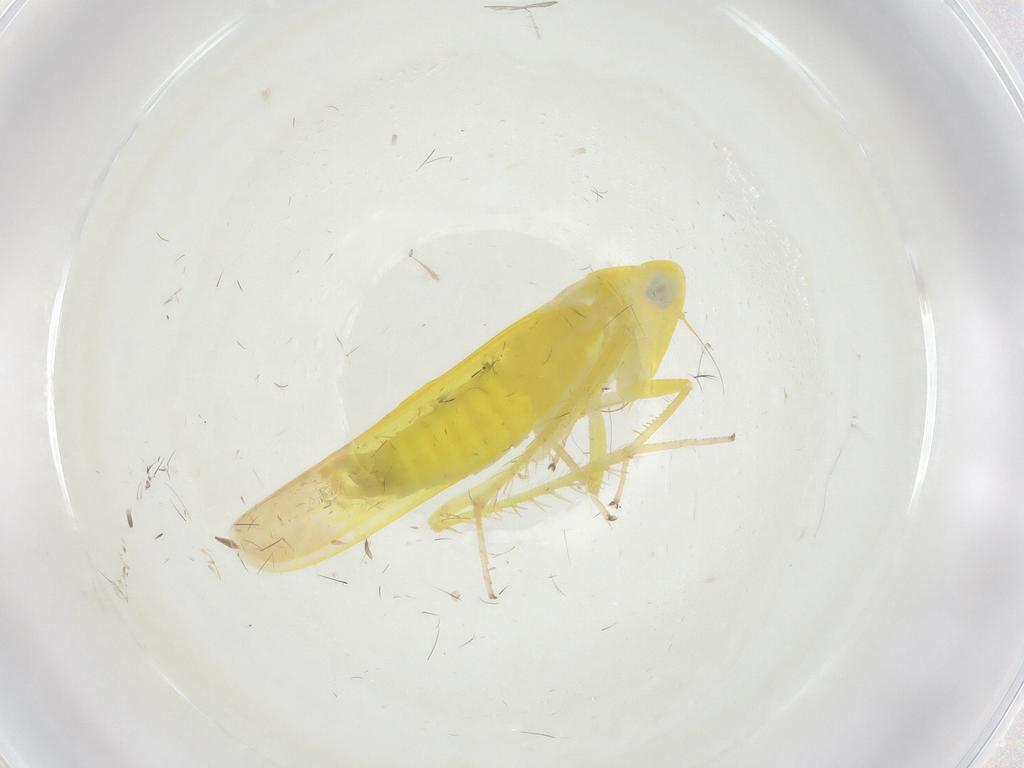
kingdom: Animalia
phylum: Arthropoda
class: Insecta
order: Hemiptera
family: Cicadellidae
